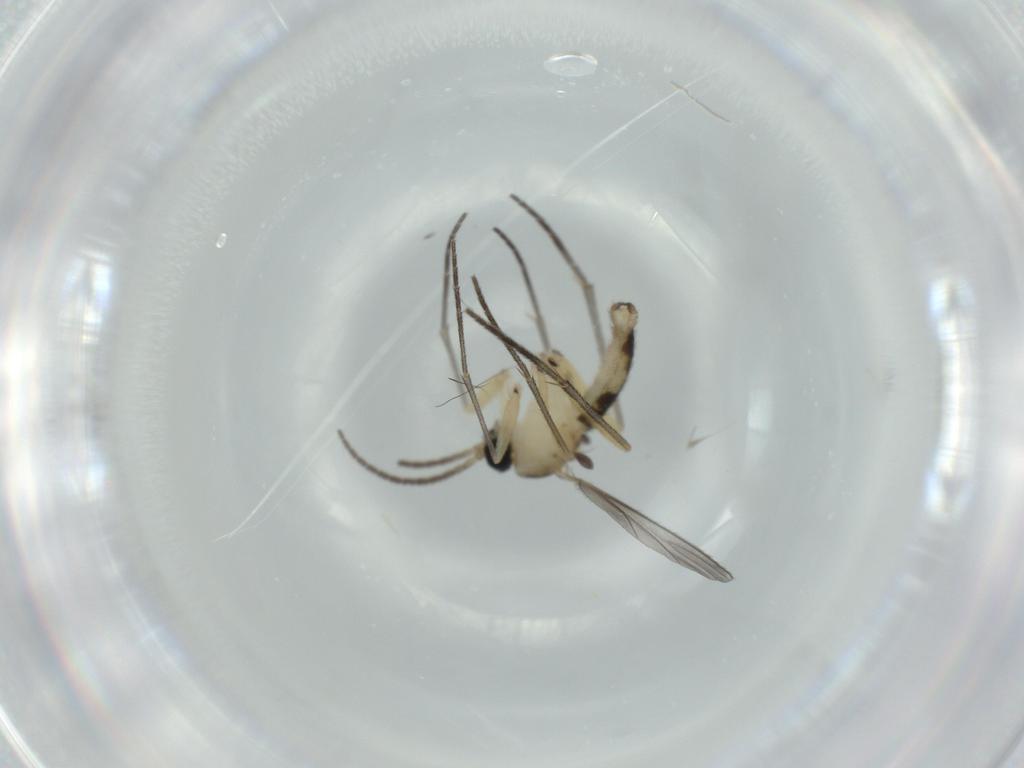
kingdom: Animalia
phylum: Arthropoda
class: Insecta
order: Diptera
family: Sciaridae
